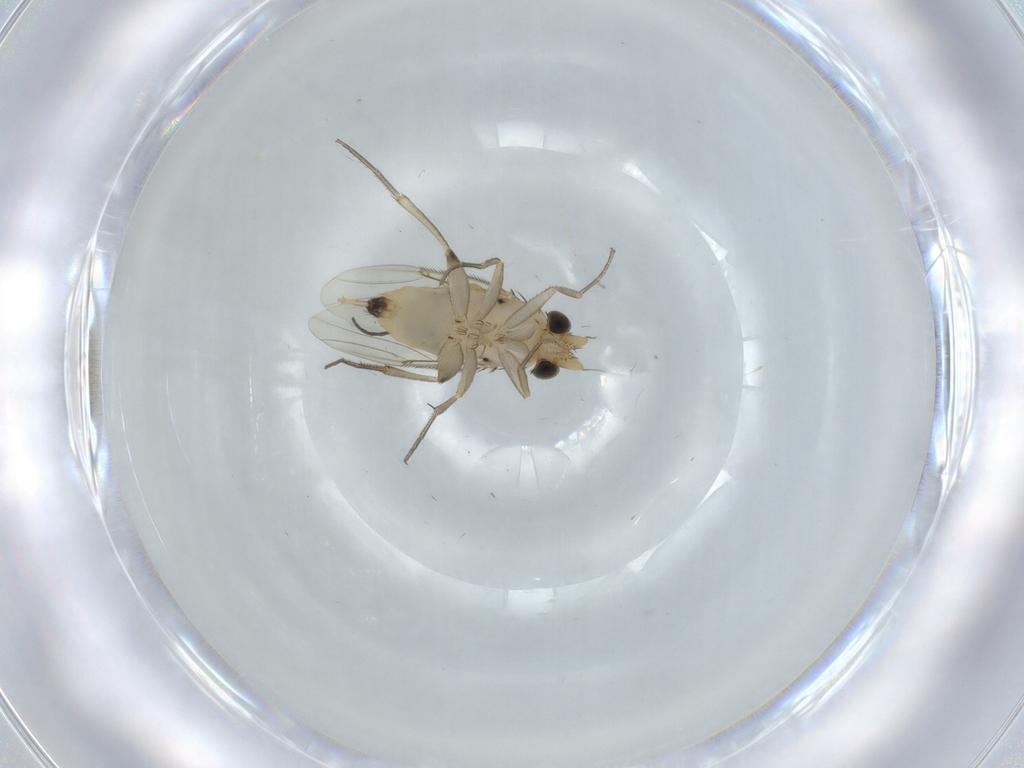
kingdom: Animalia
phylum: Arthropoda
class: Insecta
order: Diptera
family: Phoridae
